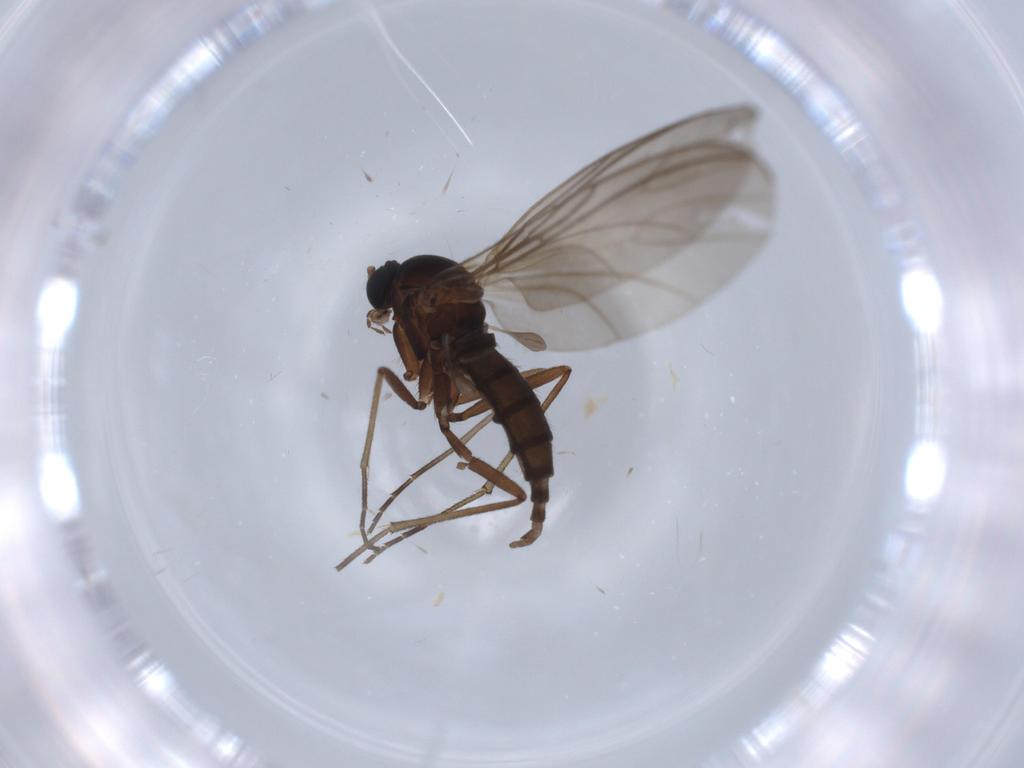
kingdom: Animalia
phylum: Arthropoda
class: Insecta
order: Diptera
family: Sciaridae
